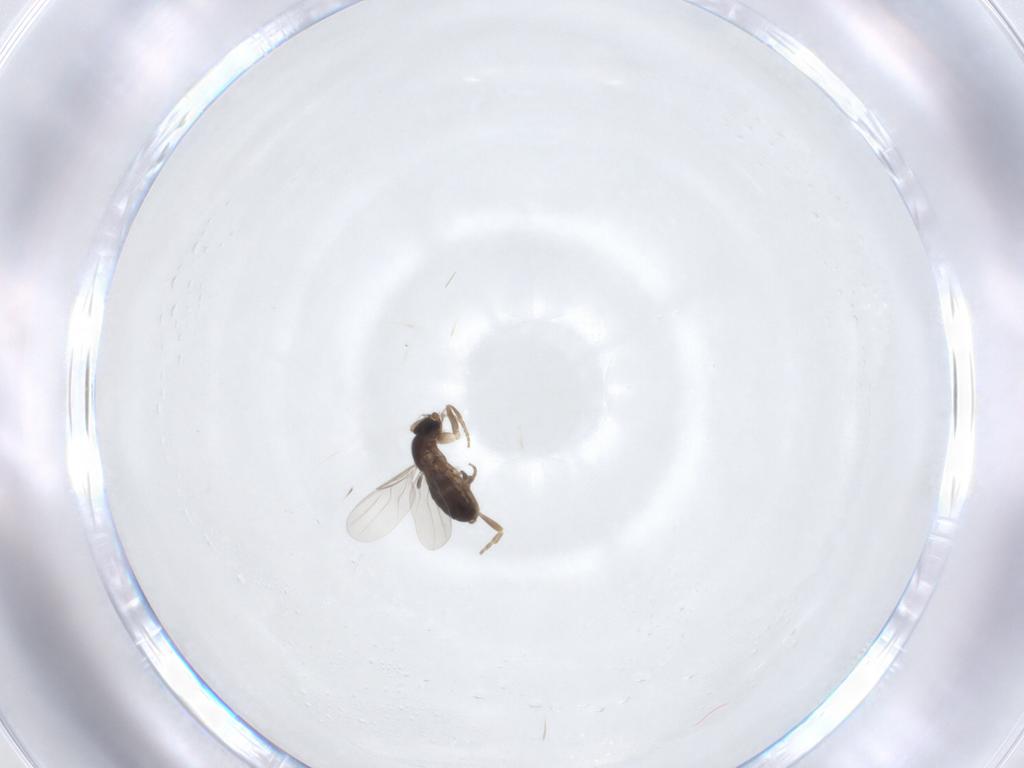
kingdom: Animalia
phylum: Arthropoda
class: Insecta
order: Diptera
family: Phoridae
